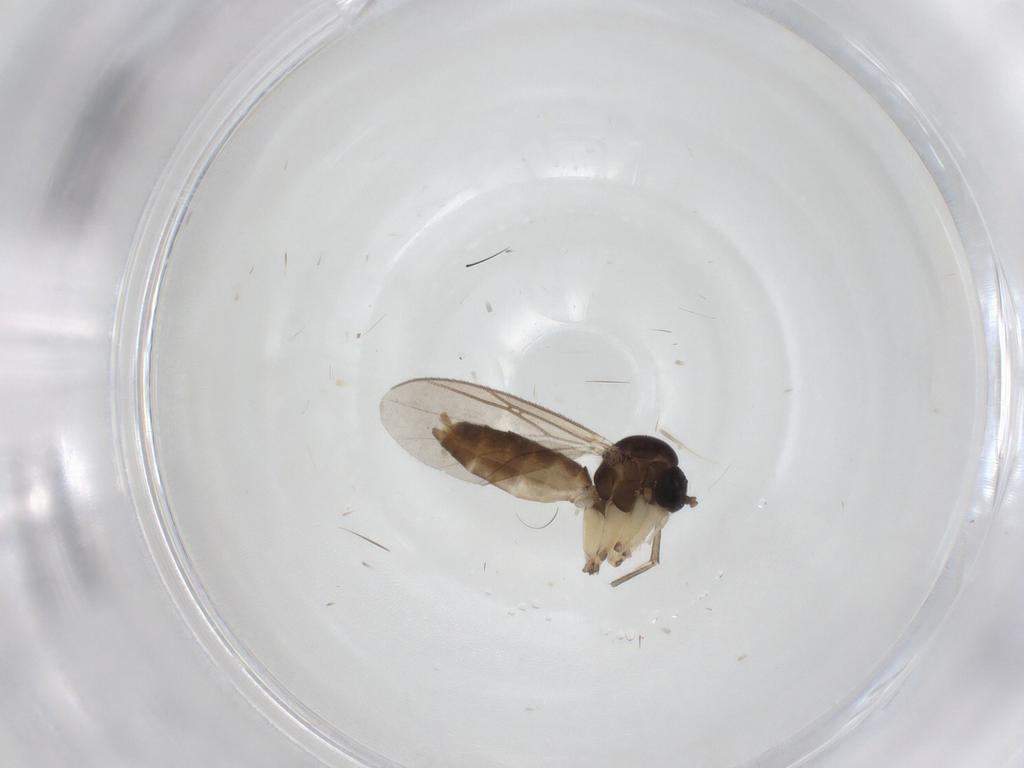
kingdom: Animalia
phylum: Arthropoda
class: Insecta
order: Diptera
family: Mycetophilidae
